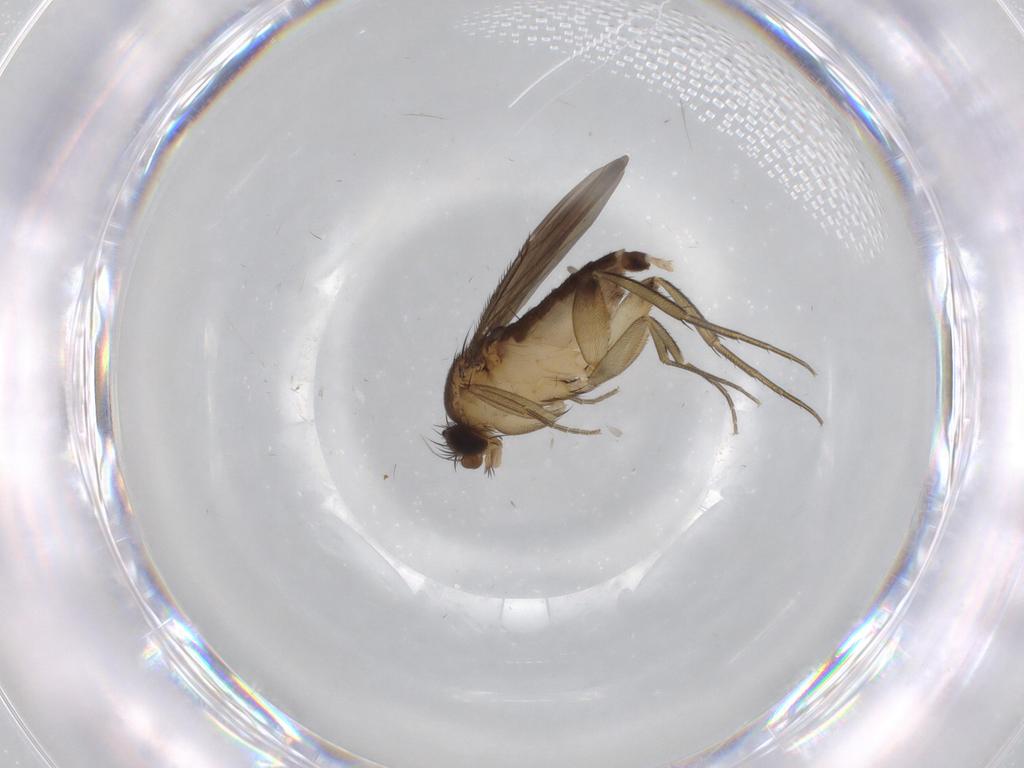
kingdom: Animalia
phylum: Arthropoda
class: Insecta
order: Diptera
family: Phoridae
